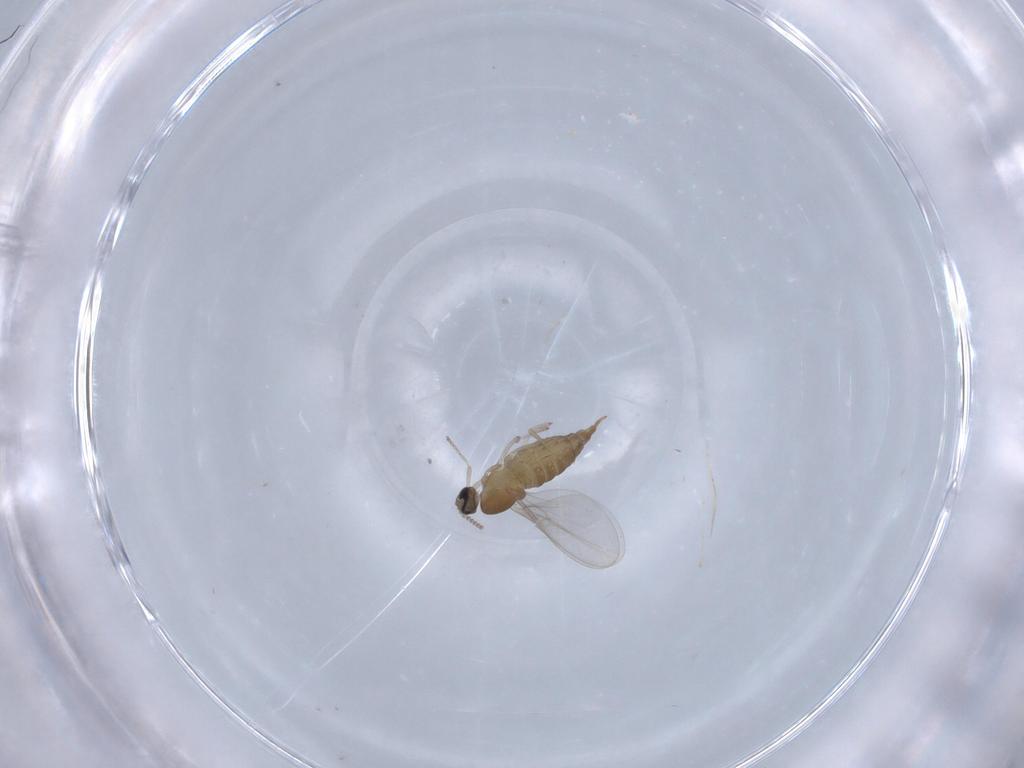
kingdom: Animalia
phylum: Arthropoda
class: Insecta
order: Diptera
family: Cecidomyiidae
